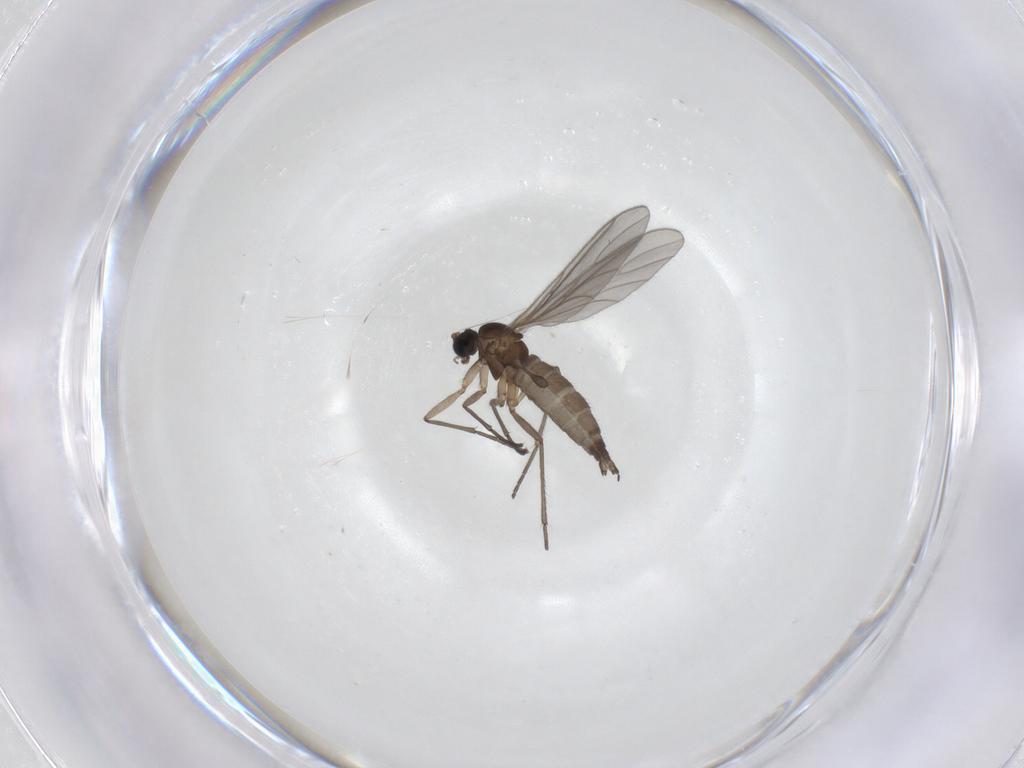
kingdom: Animalia
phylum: Arthropoda
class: Insecta
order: Diptera
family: Sciaridae
